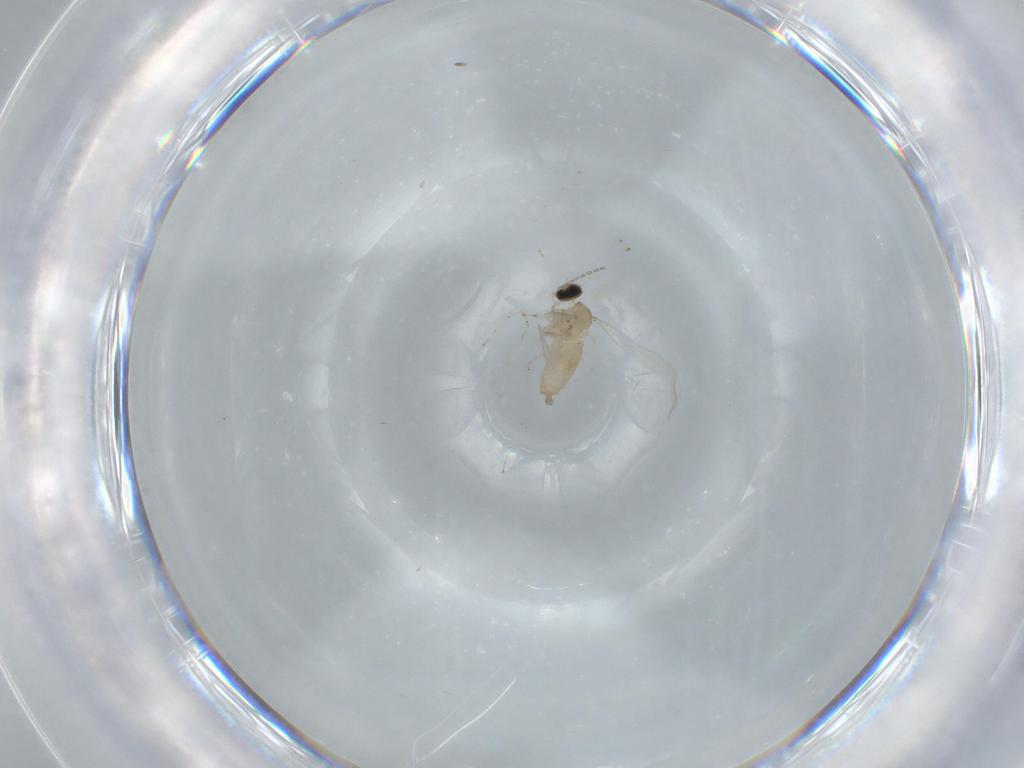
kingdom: Animalia
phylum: Arthropoda
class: Insecta
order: Diptera
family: Cecidomyiidae
